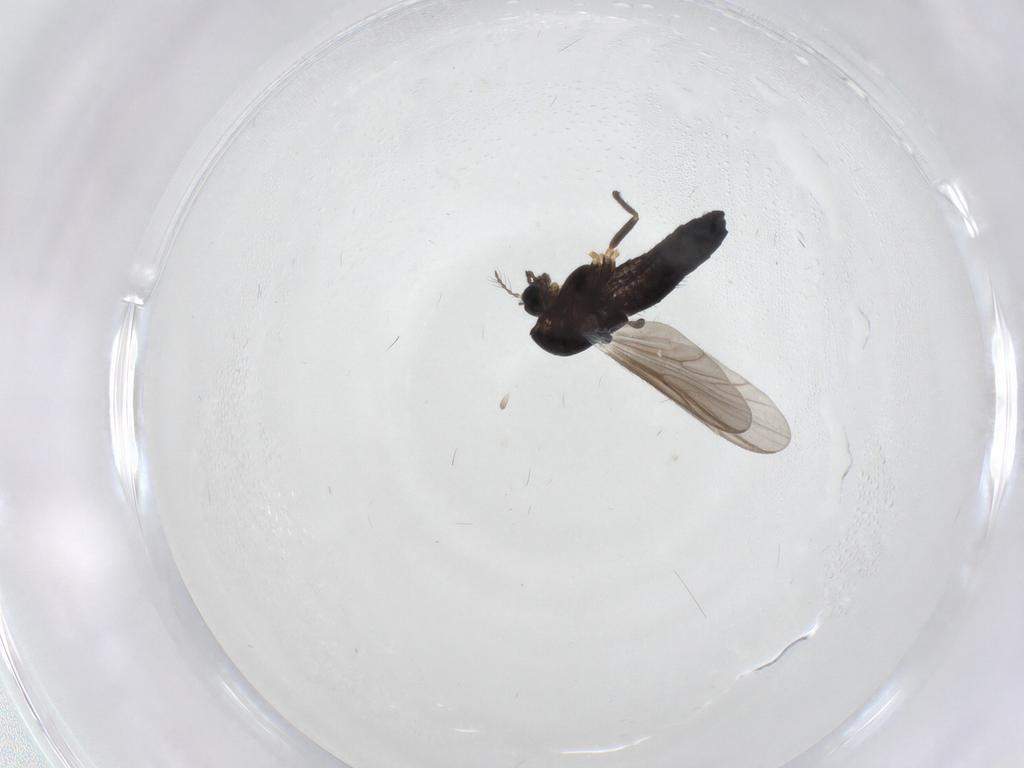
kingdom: Animalia
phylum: Arthropoda
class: Insecta
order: Diptera
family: Chironomidae
